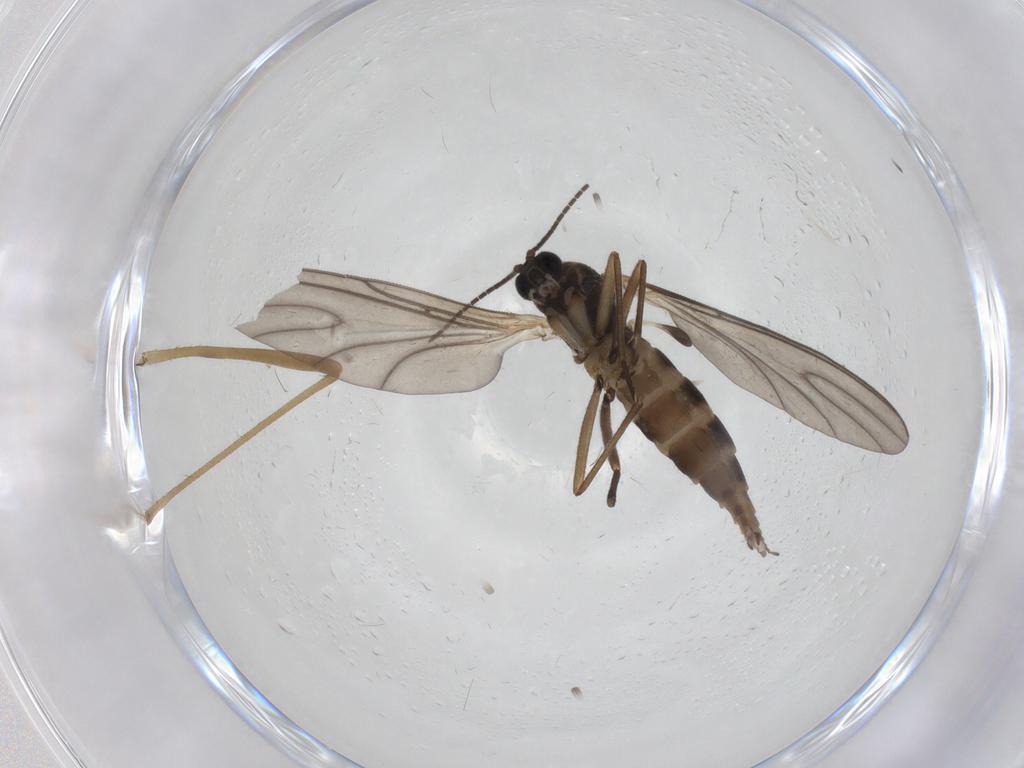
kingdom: Animalia
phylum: Arthropoda
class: Insecta
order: Diptera
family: Sciaridae
